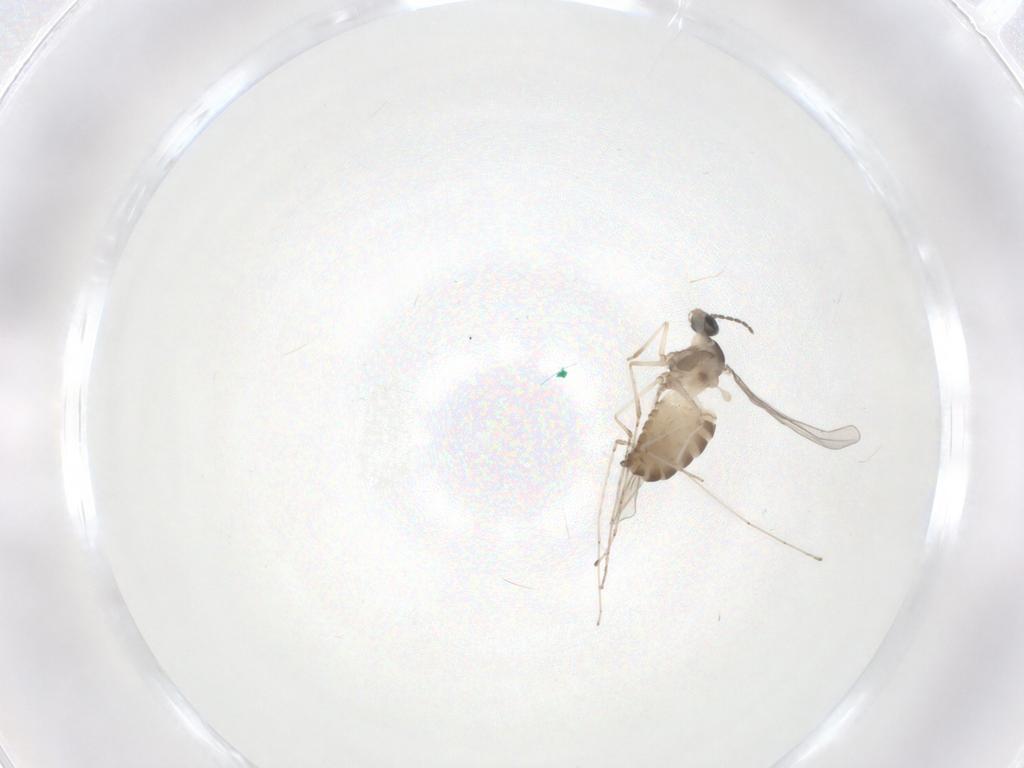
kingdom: Animalia
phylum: Arthropoda
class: Insecta
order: Diptera
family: Cecidomyiidae
